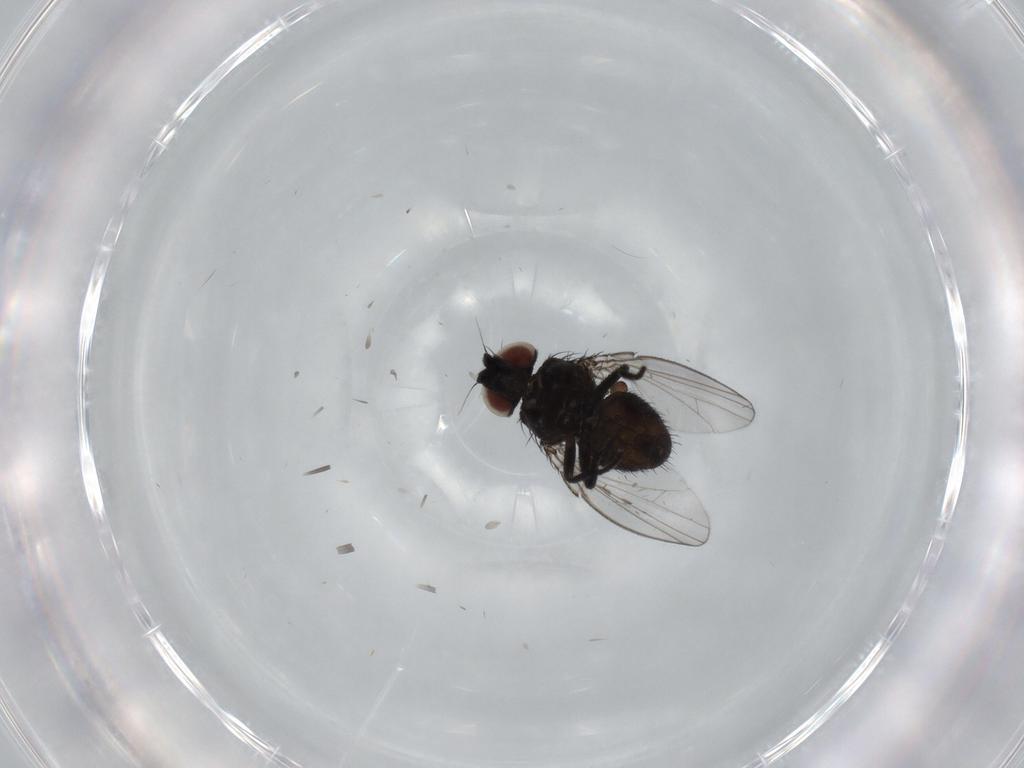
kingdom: Animalia
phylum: Arthropoda
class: Insecta
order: Diptera
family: Milichiidae
